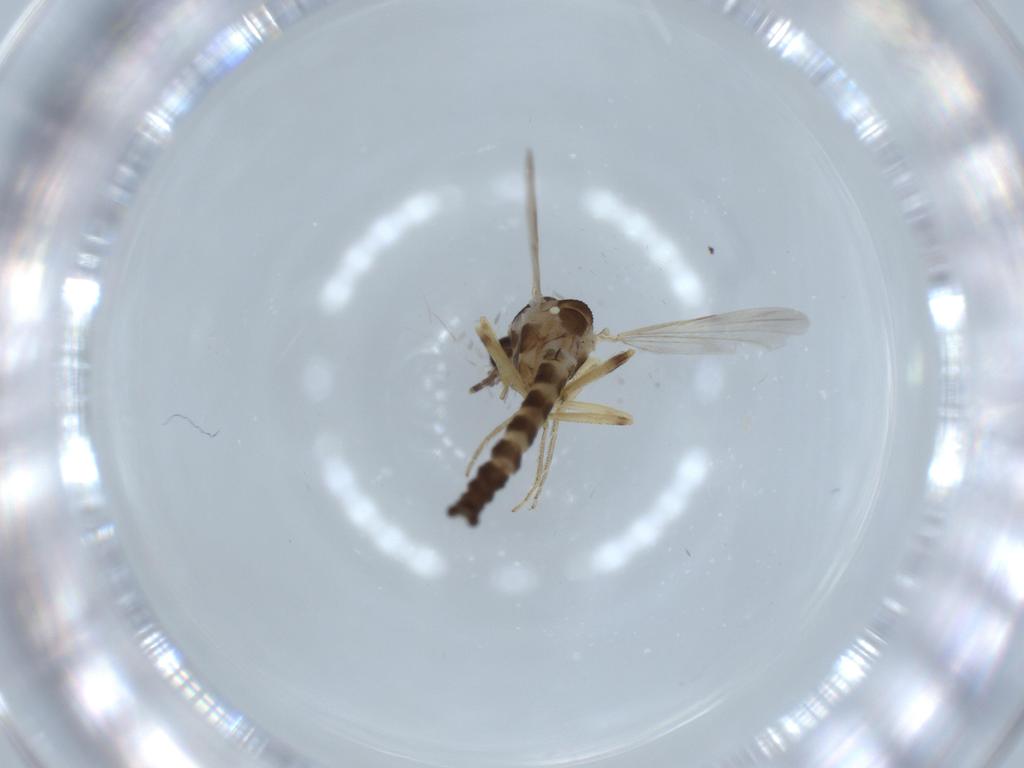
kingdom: Animalia
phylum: Arthropoda
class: Insecta
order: Diptera
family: Ceratopogonidae
